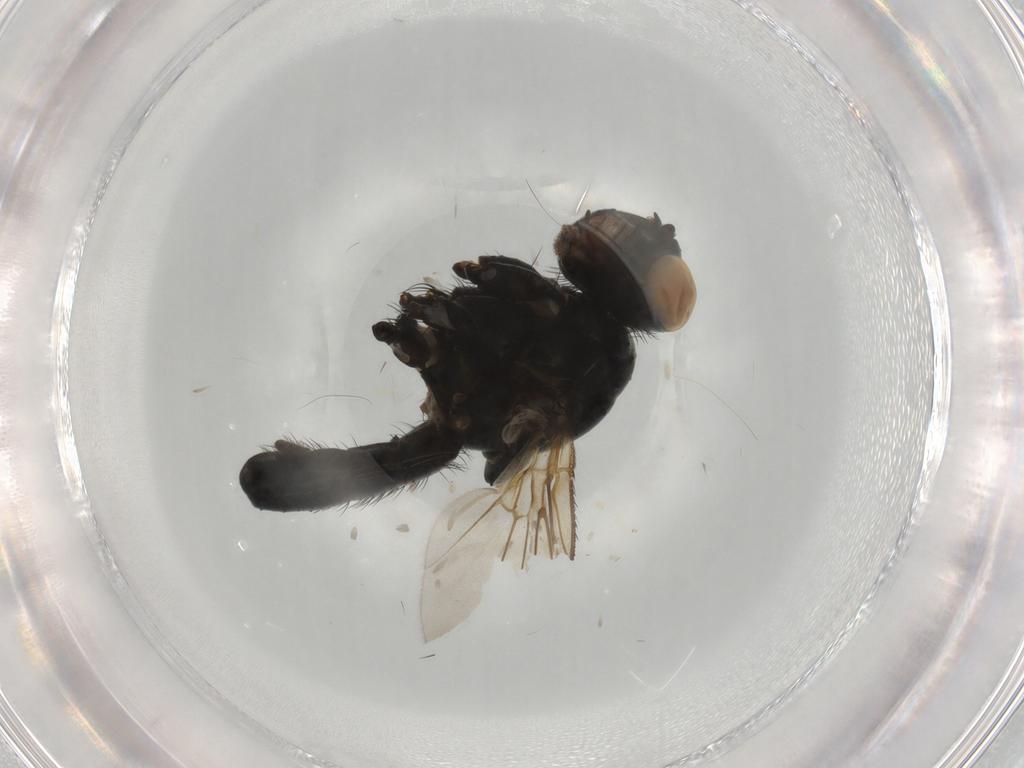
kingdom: Animalia
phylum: Arthropoda
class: Insecta
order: Diptera
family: Anthomyiidae
